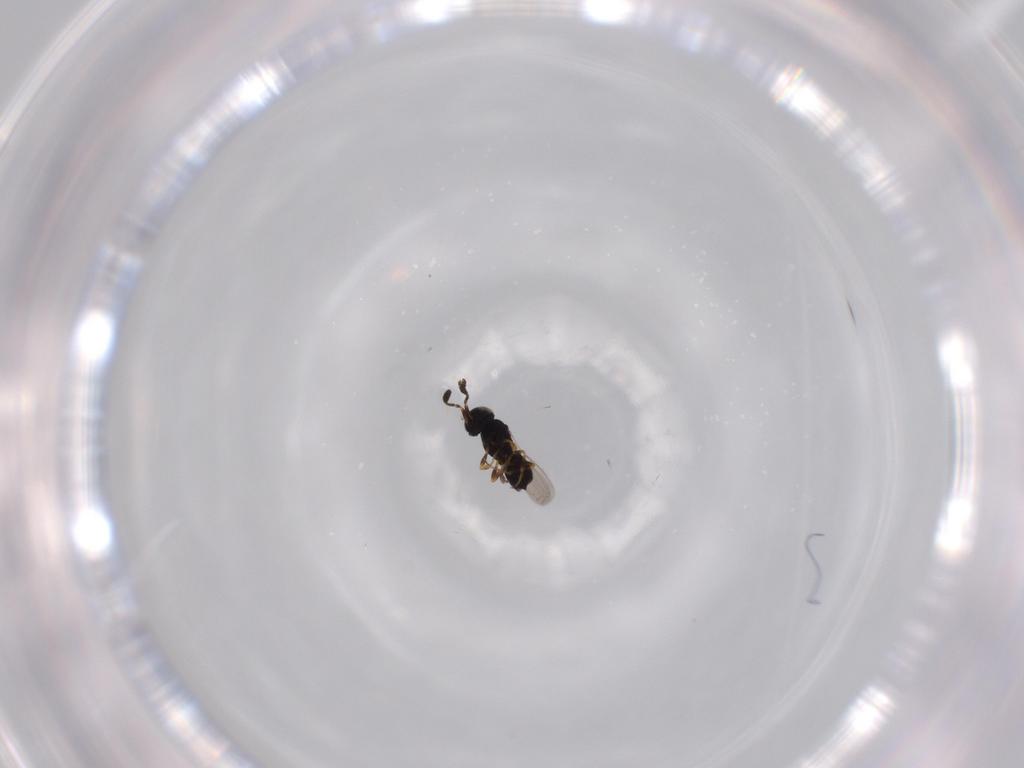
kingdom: Animalia
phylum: Arthropoda
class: Insecta
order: Hymenoptera
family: Scelionidae
